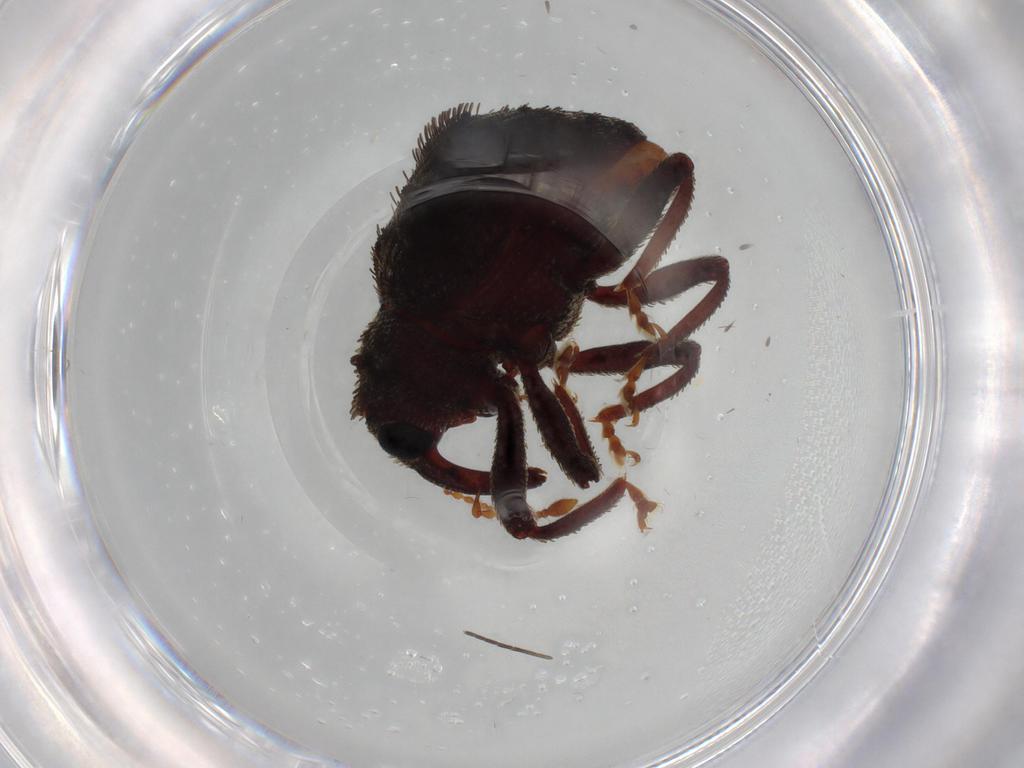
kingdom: Animalia
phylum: Arthropoda
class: Insecta
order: Coleoptera
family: Curculionidae
